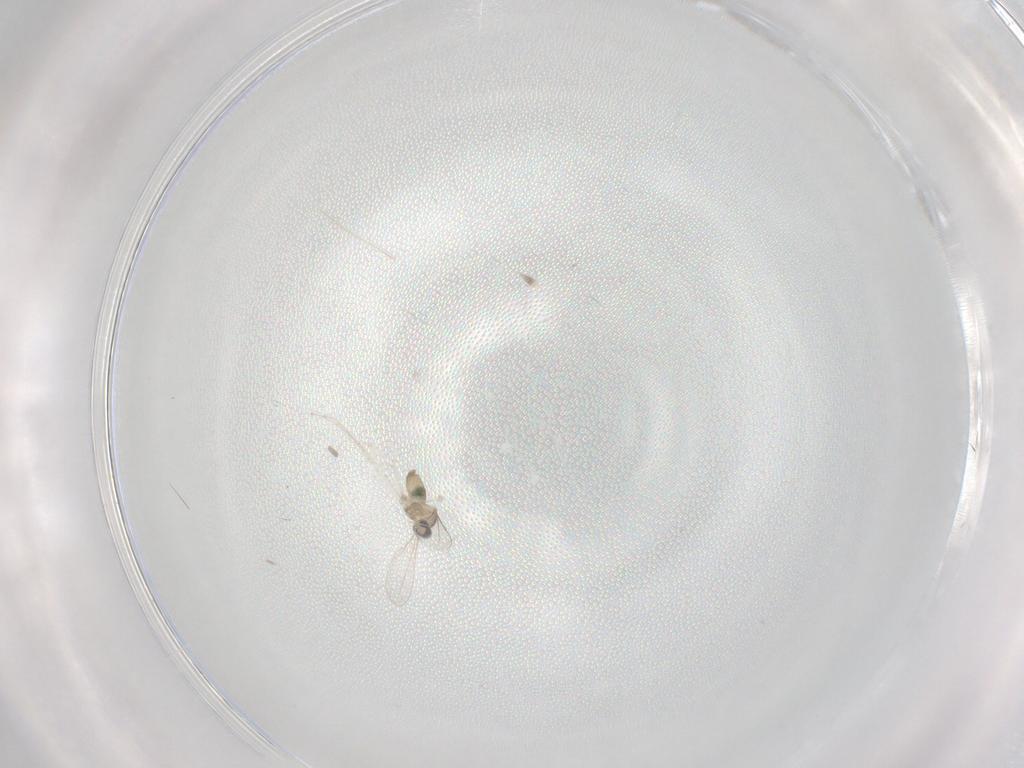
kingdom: Animalia
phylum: Arthropoda
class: Insecta
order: Diptera
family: Cecidomyiidae
